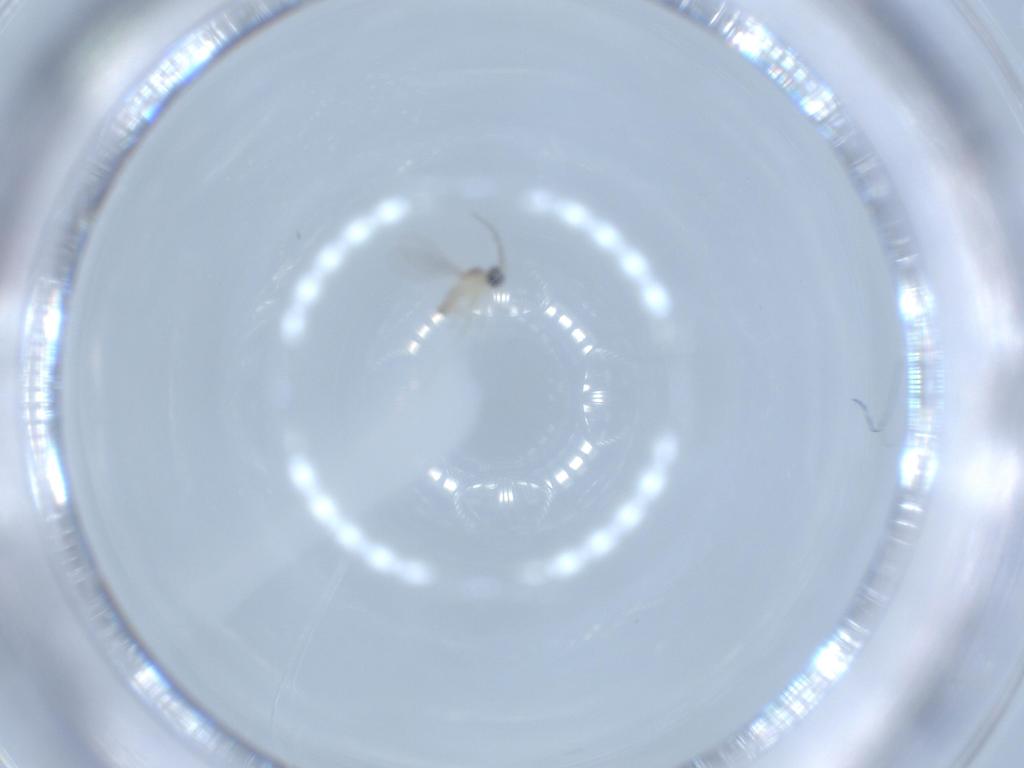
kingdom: Animalia
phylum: Arthropoda
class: Insecta
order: Diptera
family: Cecidomyiidae
